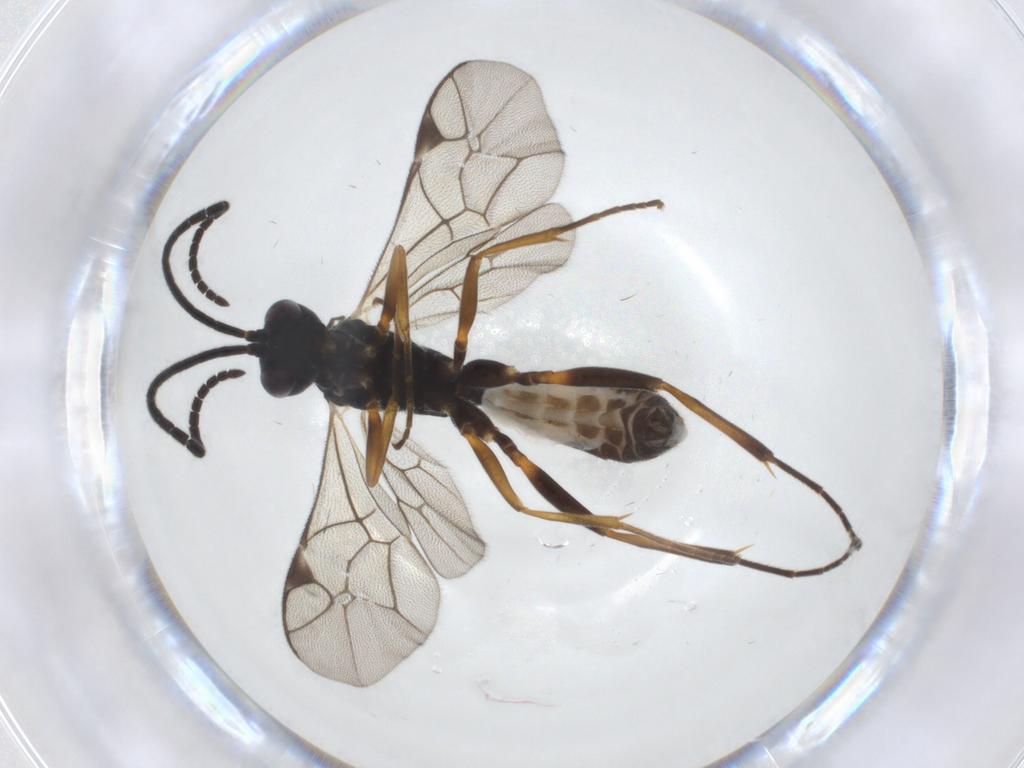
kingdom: Animalia
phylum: Arthropoda
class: Insecta
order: Hymenoptera
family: Ichneumonidae
